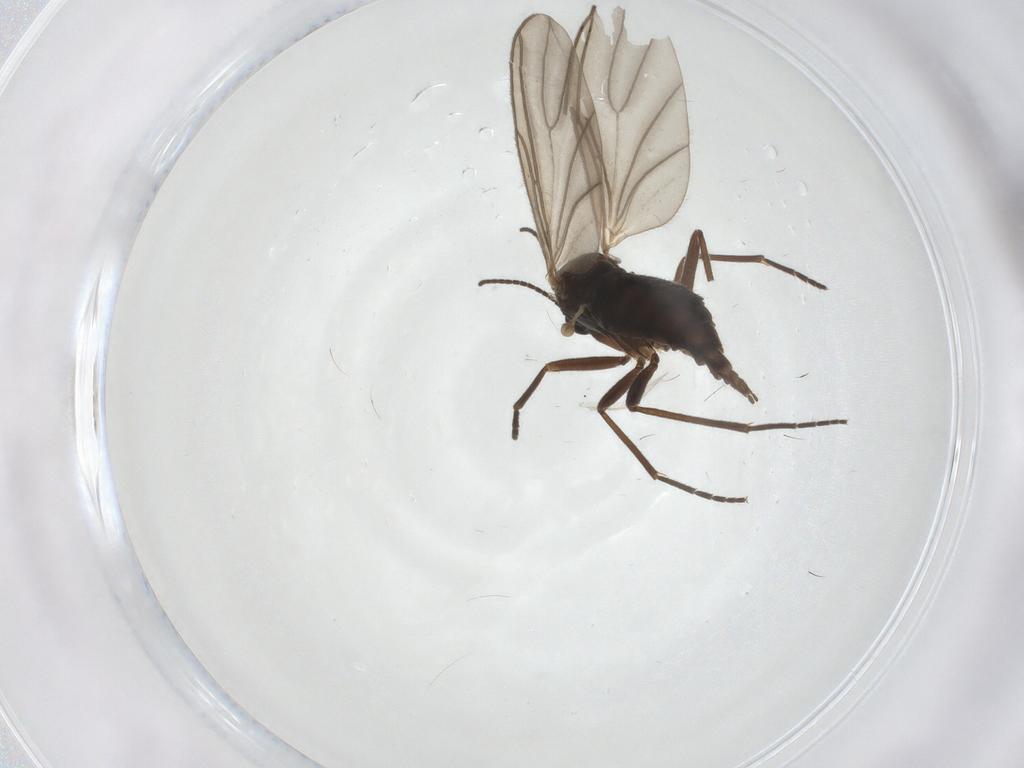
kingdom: Animalia
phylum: Arthropoda
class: Insecta
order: Diptera
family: Sciaridae
